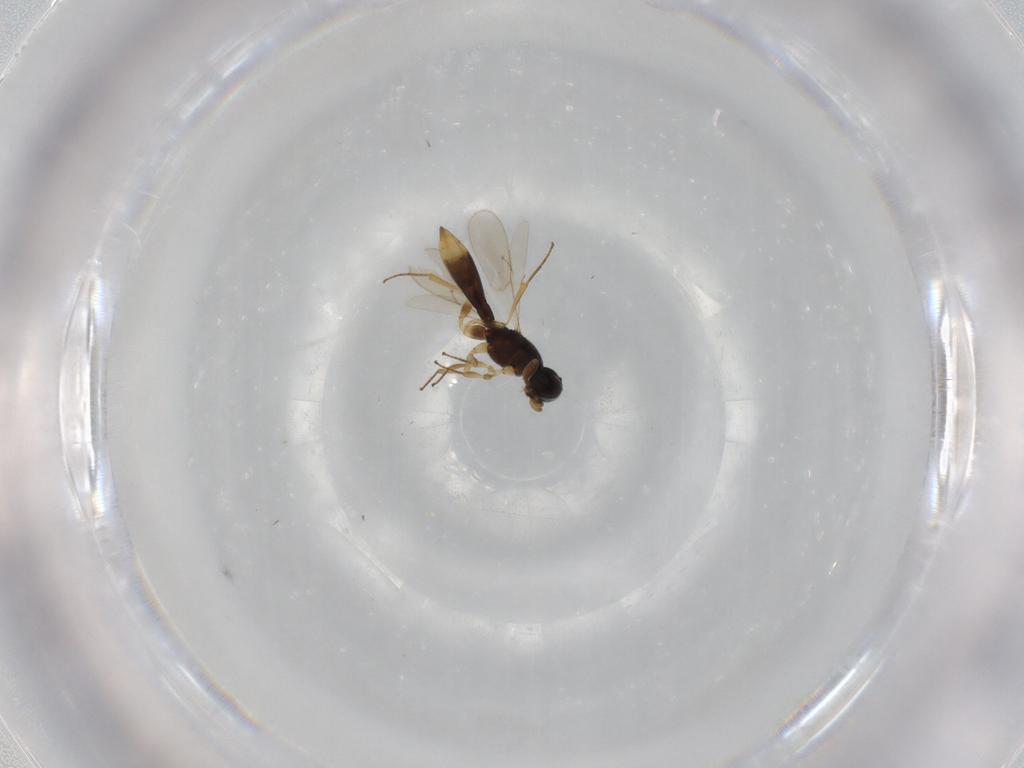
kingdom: Animalia
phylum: Arthropoda
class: Insecta
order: Hymenoptera
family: Scelionidae
